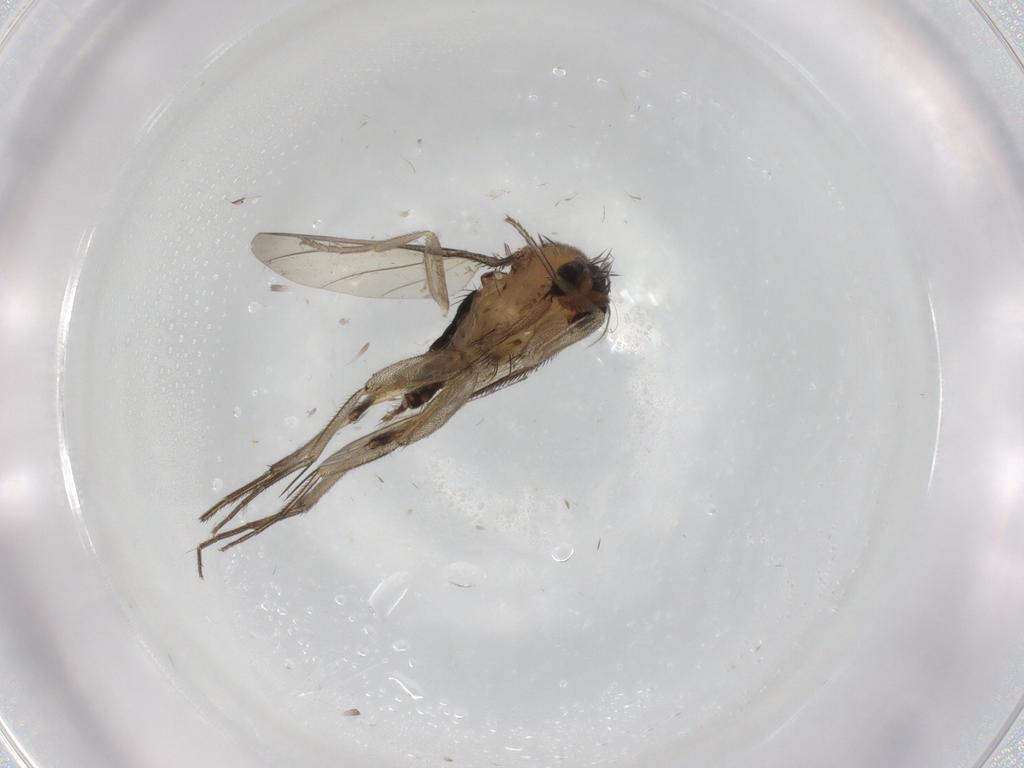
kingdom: Animalia
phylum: Arthropoda
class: Insecta
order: Diptera
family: Phoridae
